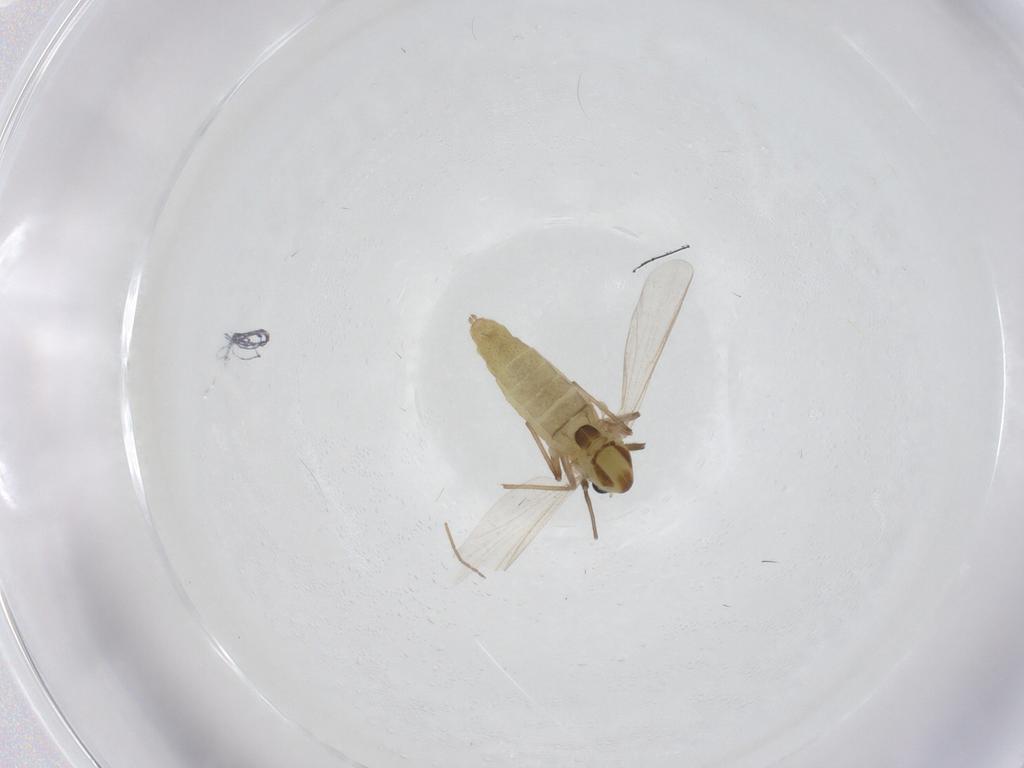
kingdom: Animalia
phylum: Arthropoda
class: Insecta
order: Diptera
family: Chironomidae
